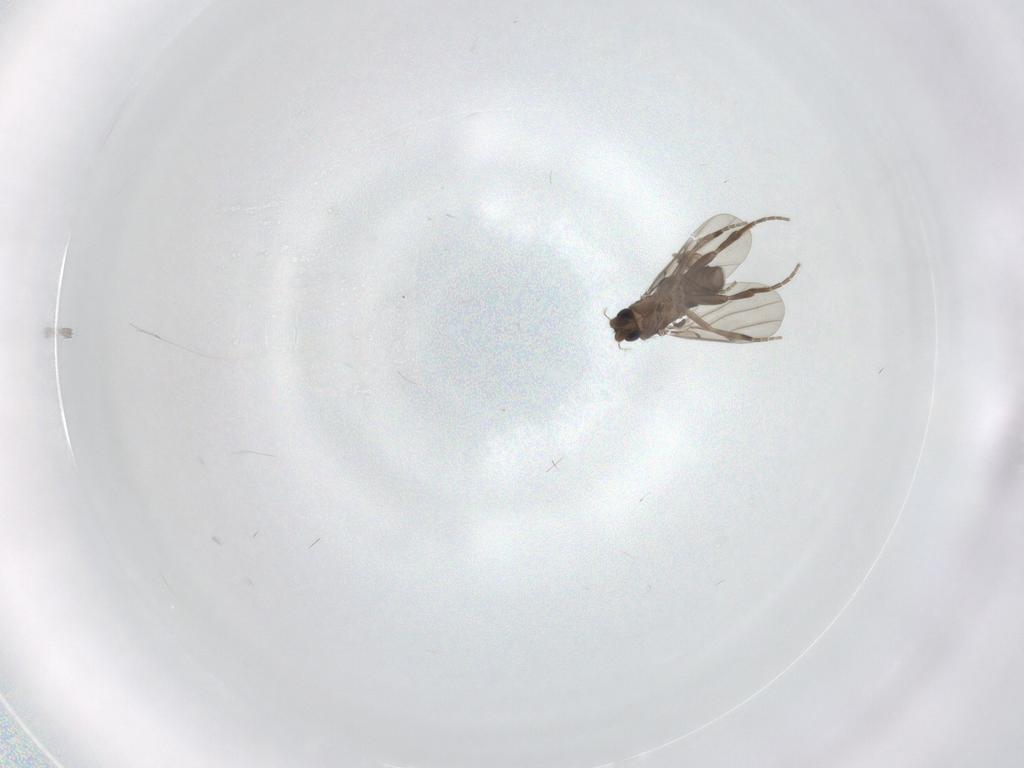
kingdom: Animalia
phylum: Arthropoda
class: Insecta
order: Diptera
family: Phoridae
